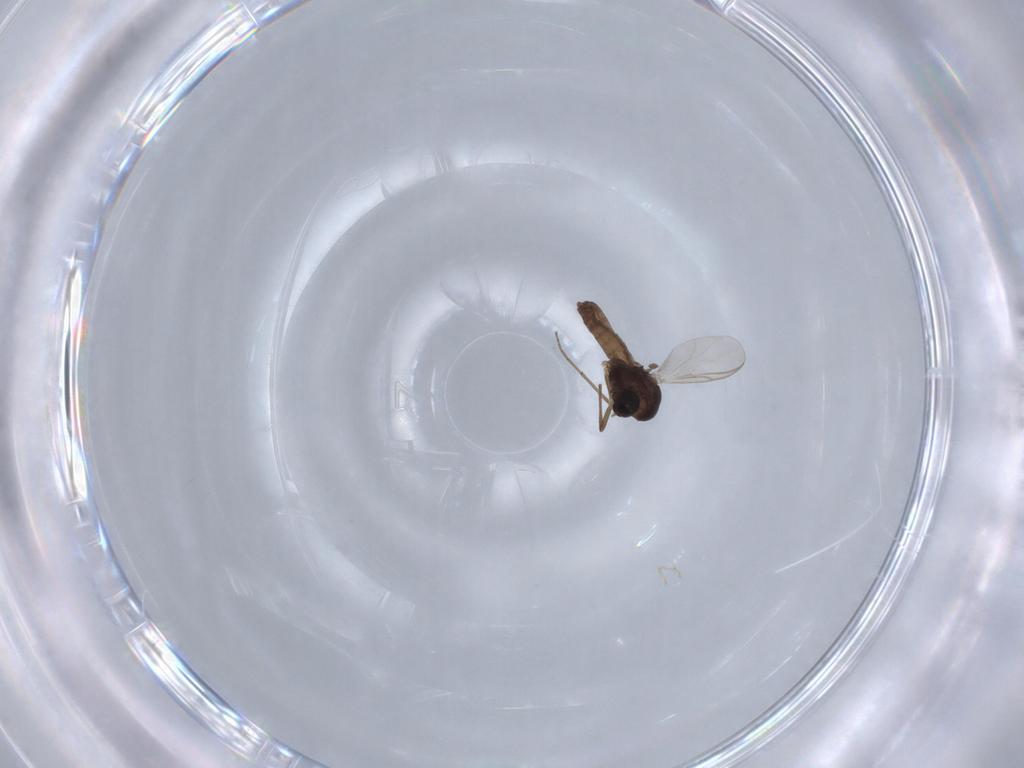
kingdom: Animalia
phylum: Arthropoda
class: Insecta
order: Diptera
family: Chironomidae
